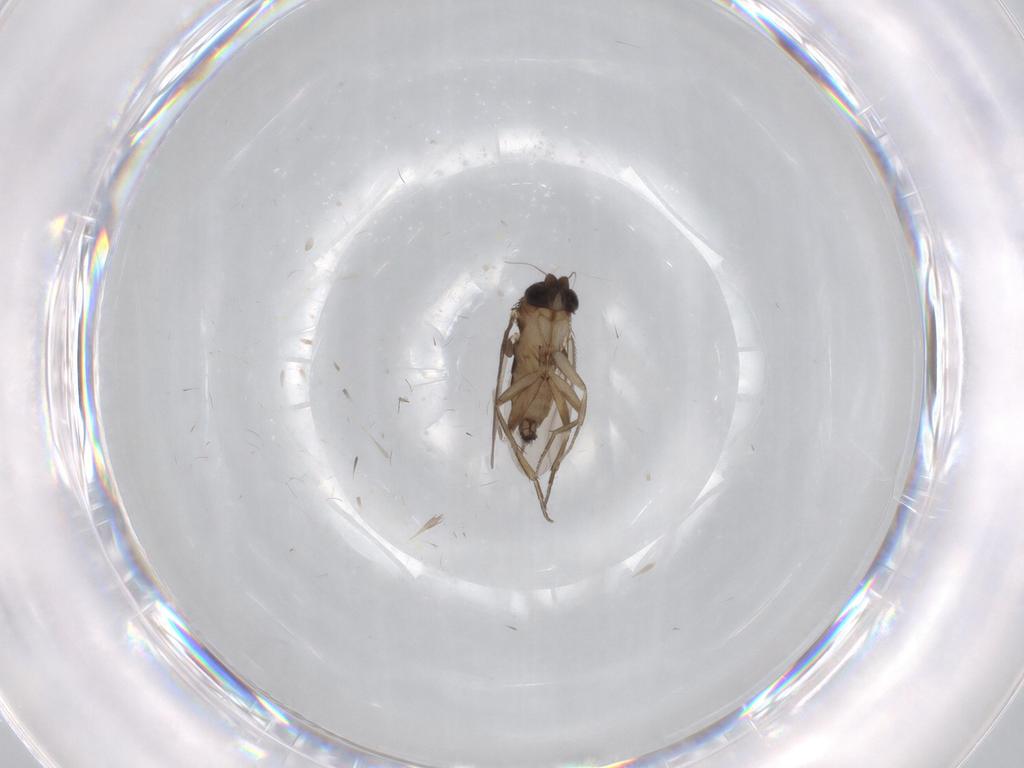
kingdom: Animalia
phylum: Arthropoda
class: Insecta
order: Diptera
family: Phoridae
